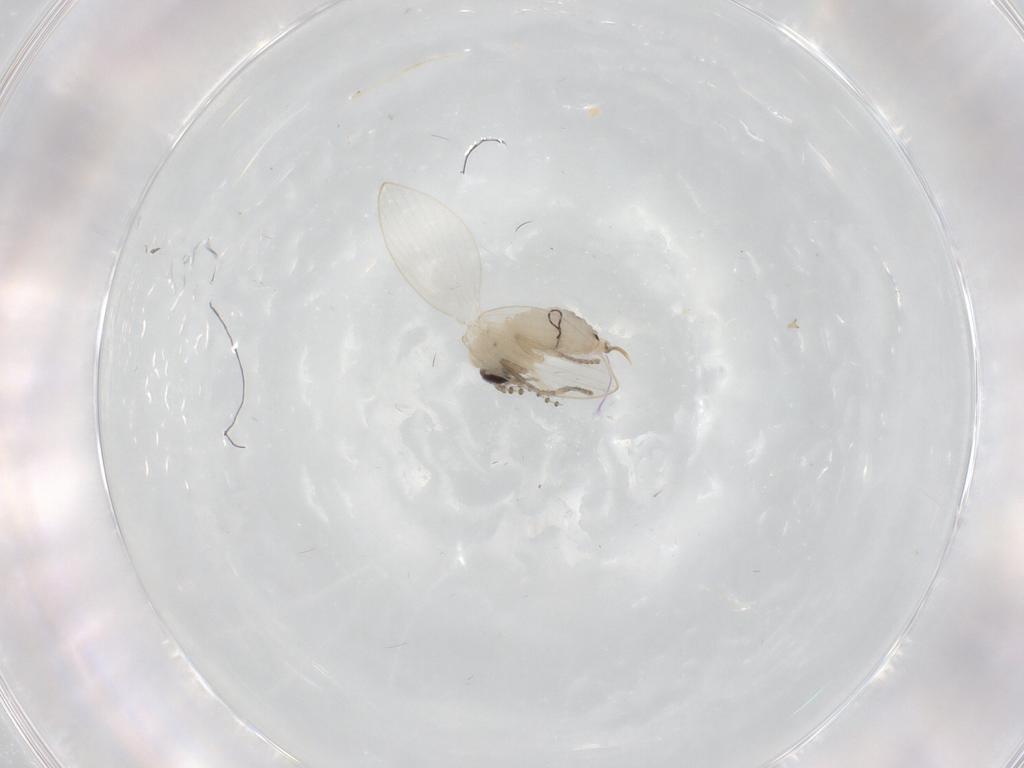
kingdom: Animalia
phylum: Arthropoda
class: Insecta
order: Diptera
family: Psychodidae
